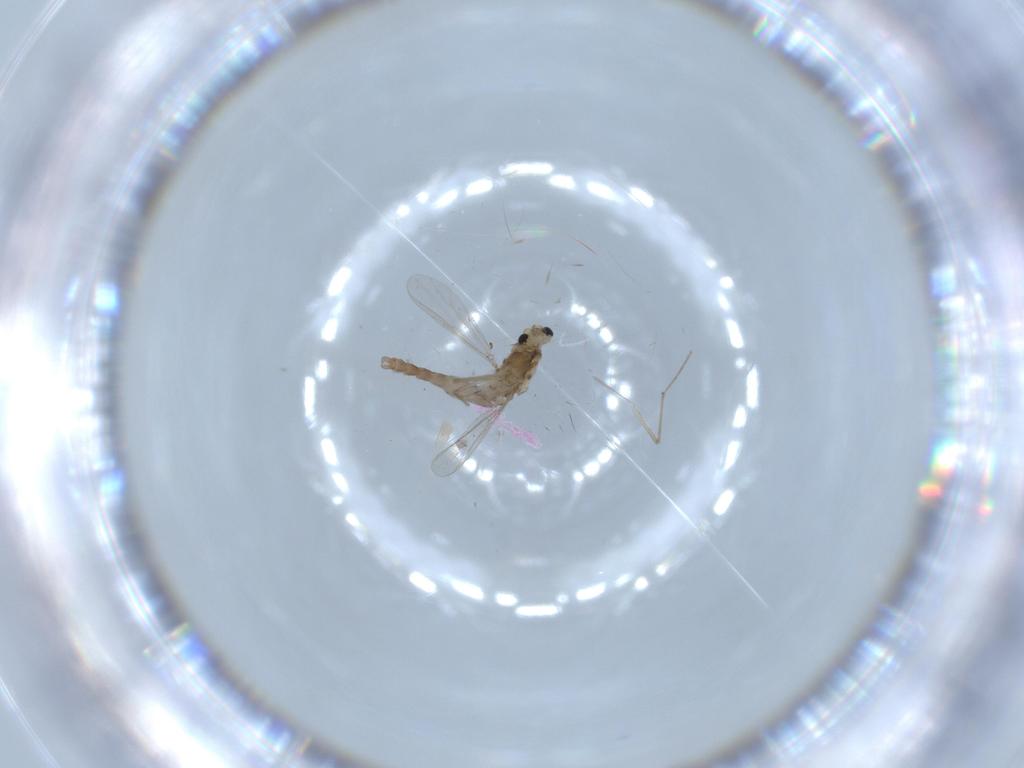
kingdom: Animalia
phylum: Arthropoda
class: Insecta
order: Diptera
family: Chironomidae
